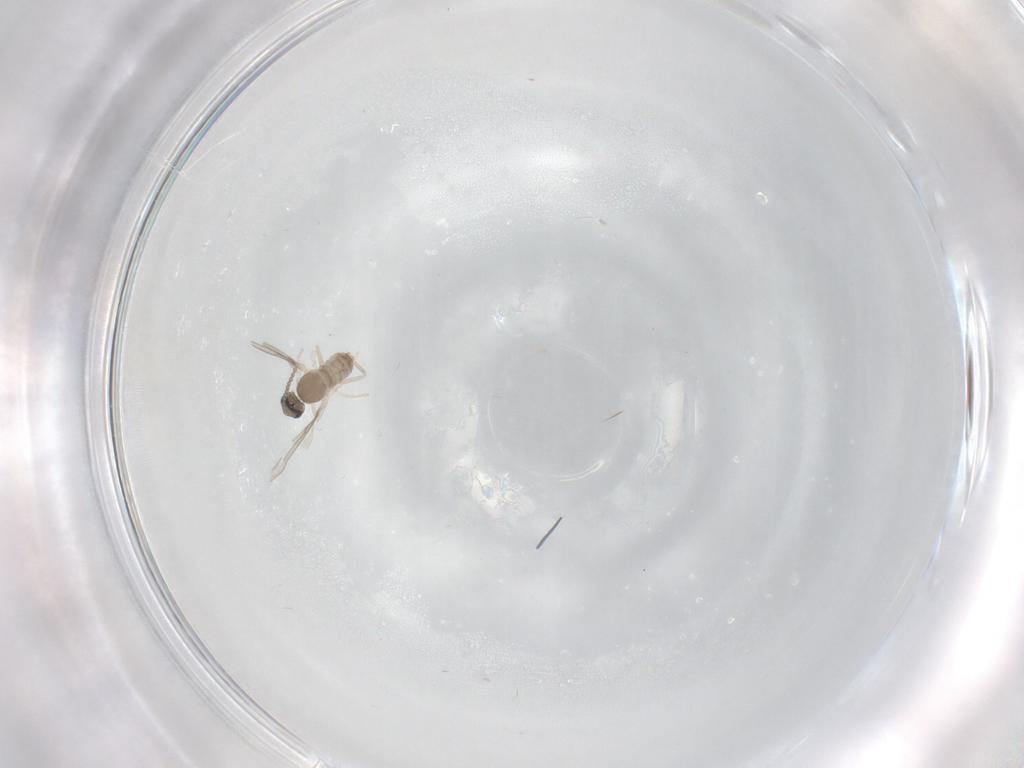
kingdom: Animalia
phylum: Arthropoda
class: Insecta
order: Diptera
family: Cecidomyiidae
